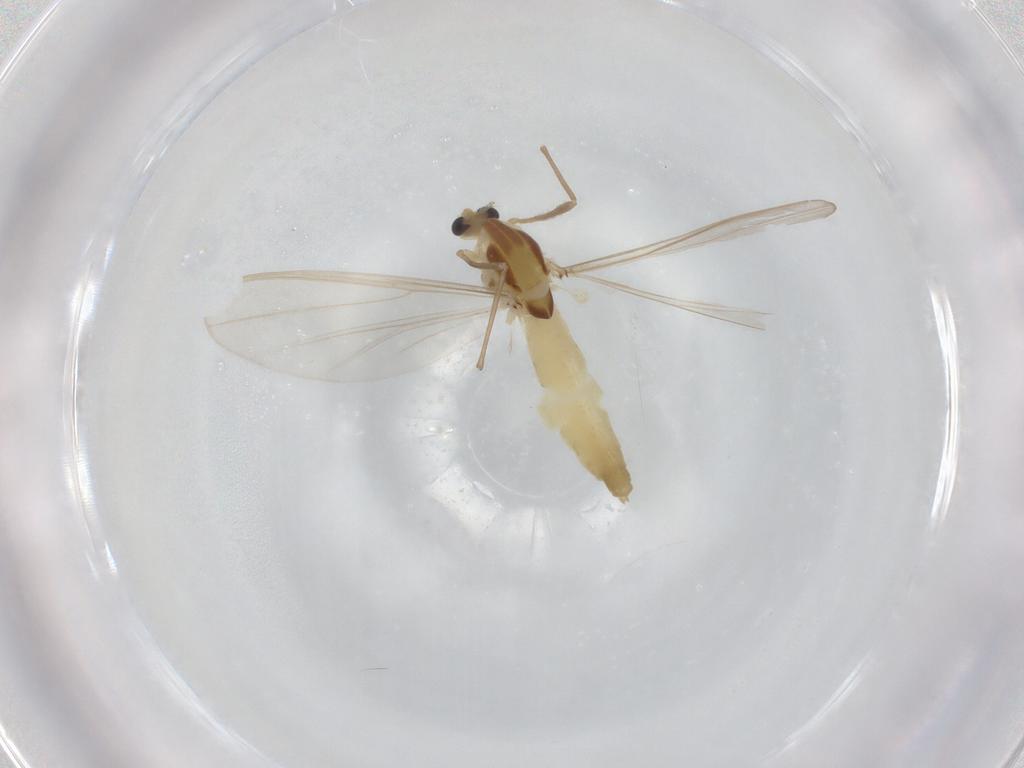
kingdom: Animalia
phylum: Arthropoda
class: Insecta
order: Diptera
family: Chironomidae
